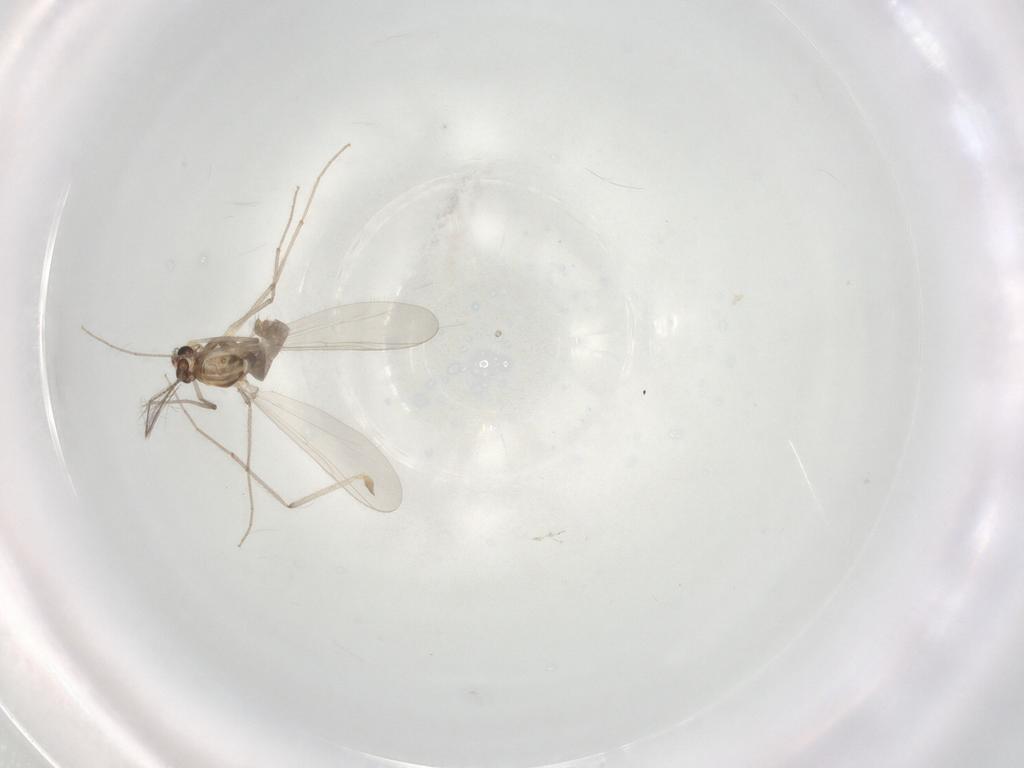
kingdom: Animalia
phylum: Arthropoda
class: Insecta
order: Diptera
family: Chironomidae
